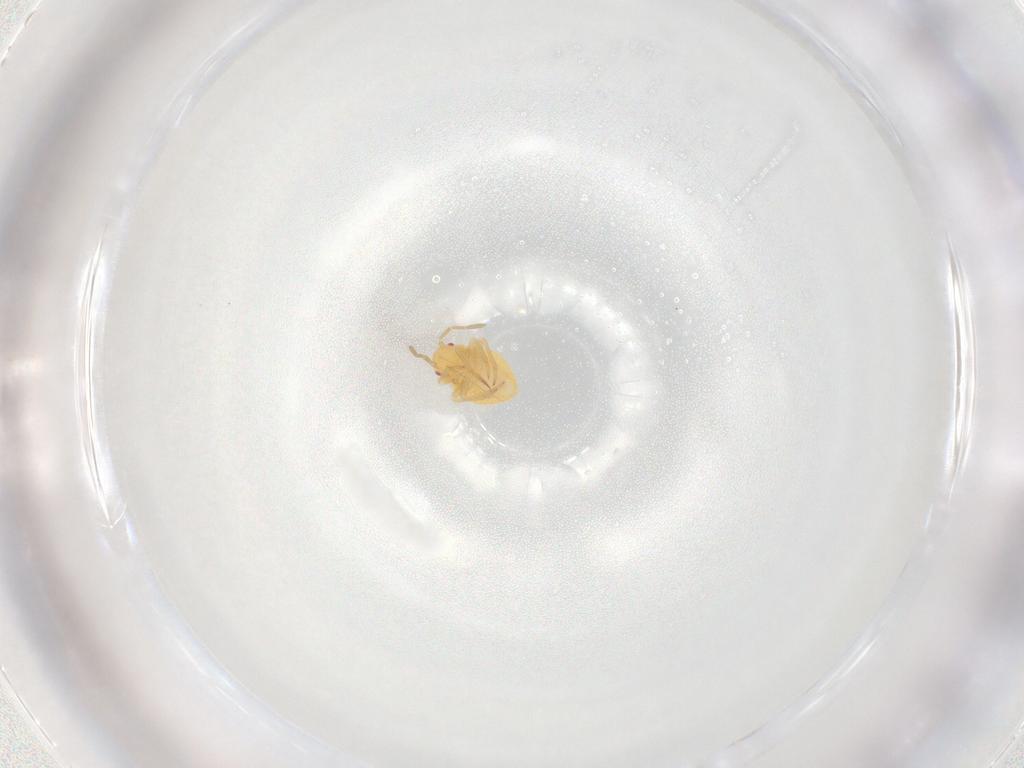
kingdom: Animalia
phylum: Arthropoda
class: Insecta
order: Hemiptera
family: Miridae
